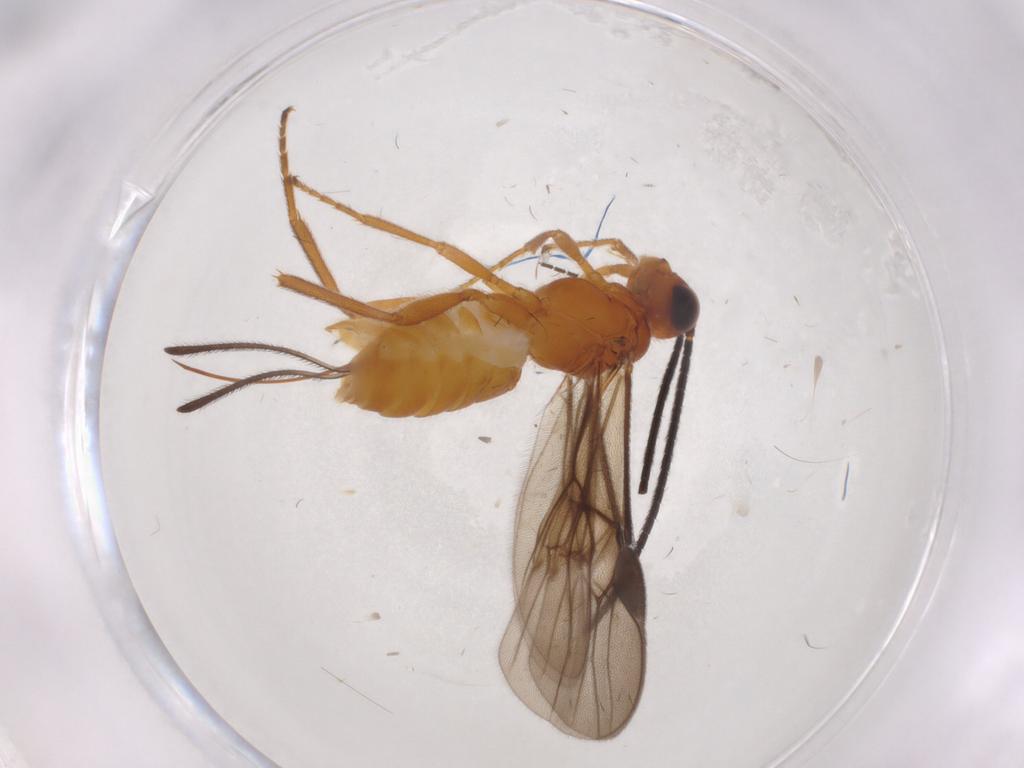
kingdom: Animalia
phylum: Arthropoda
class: Insecta
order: Hymenoptera
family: Braconidae
